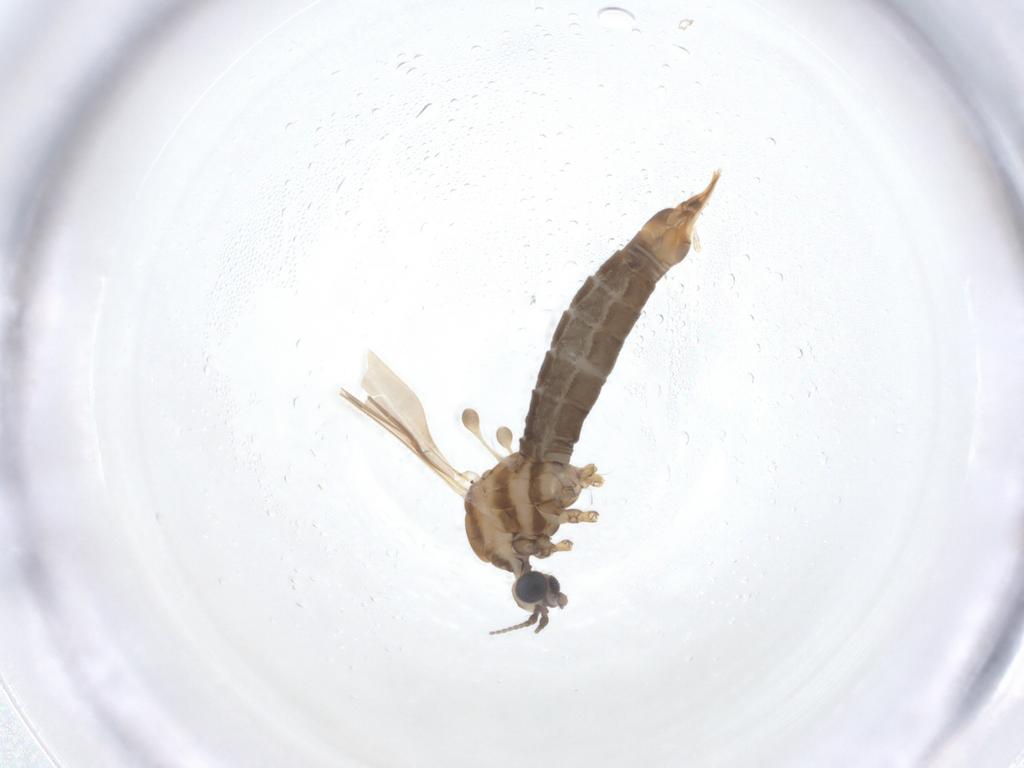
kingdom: Animalia
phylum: Arthropoda
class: Insecta
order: Diptera
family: Limoniidae
